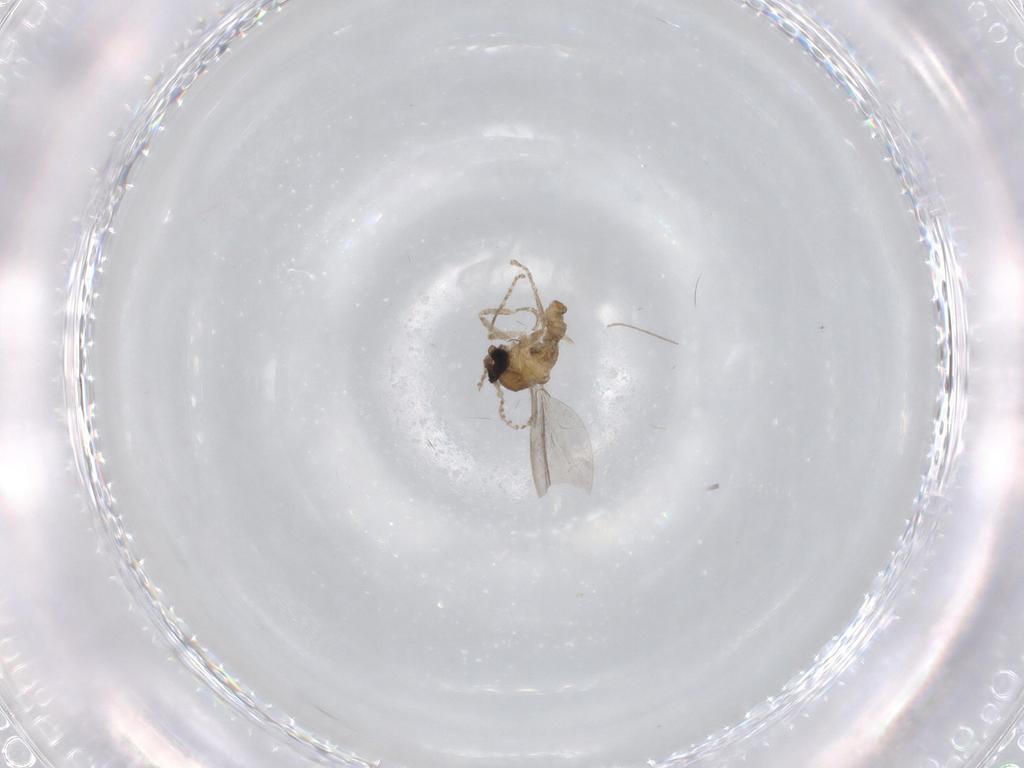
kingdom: Animalia
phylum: Arthropoda
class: Insecta
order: Diptera
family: Cecidomyiidae
